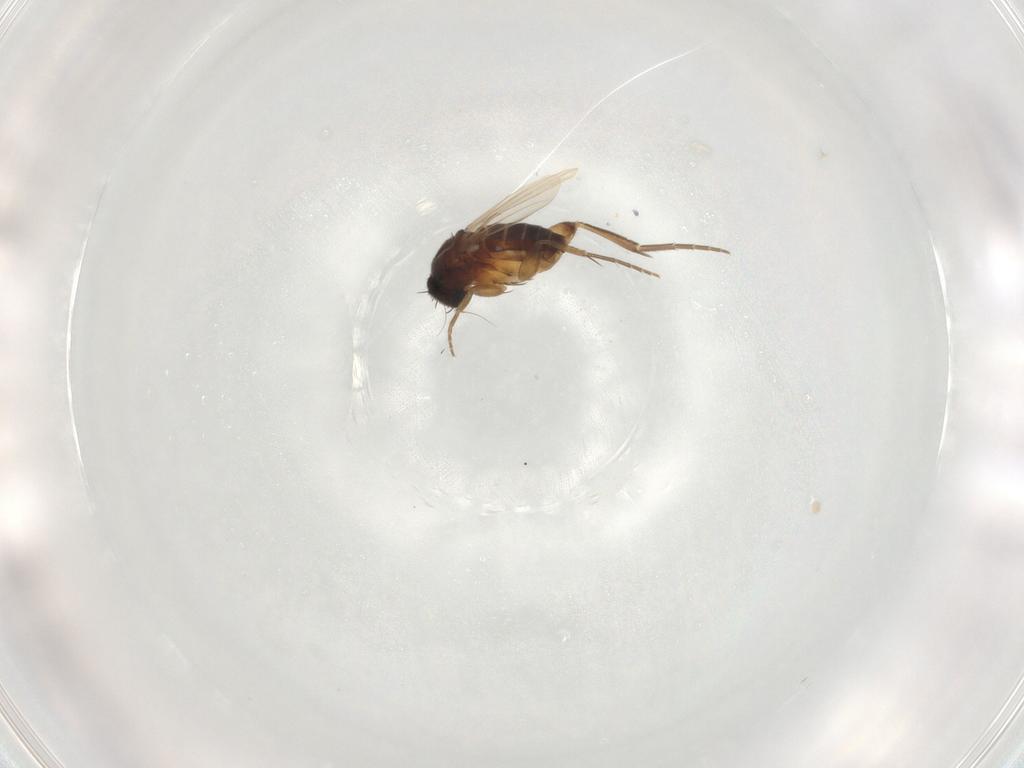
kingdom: Animalia
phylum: Arthropoda
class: Insecta
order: Diptera
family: Phoridae
